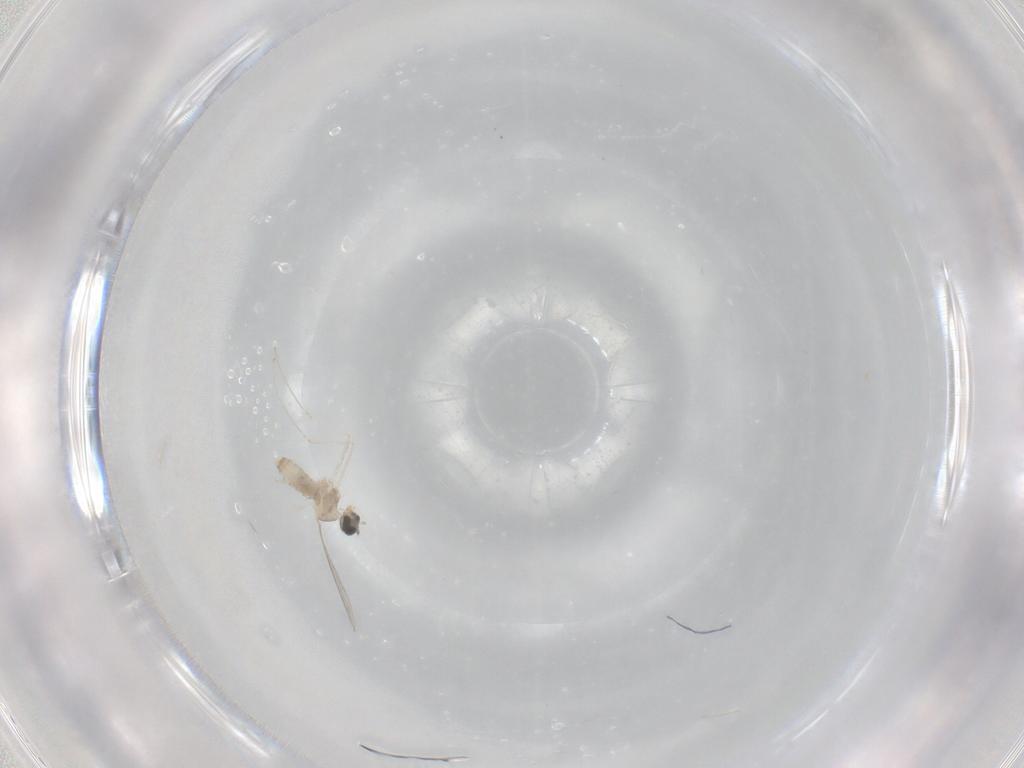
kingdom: Animalia
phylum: Arthropoda
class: Insecta
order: Diptera
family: Cecidomyiidae
